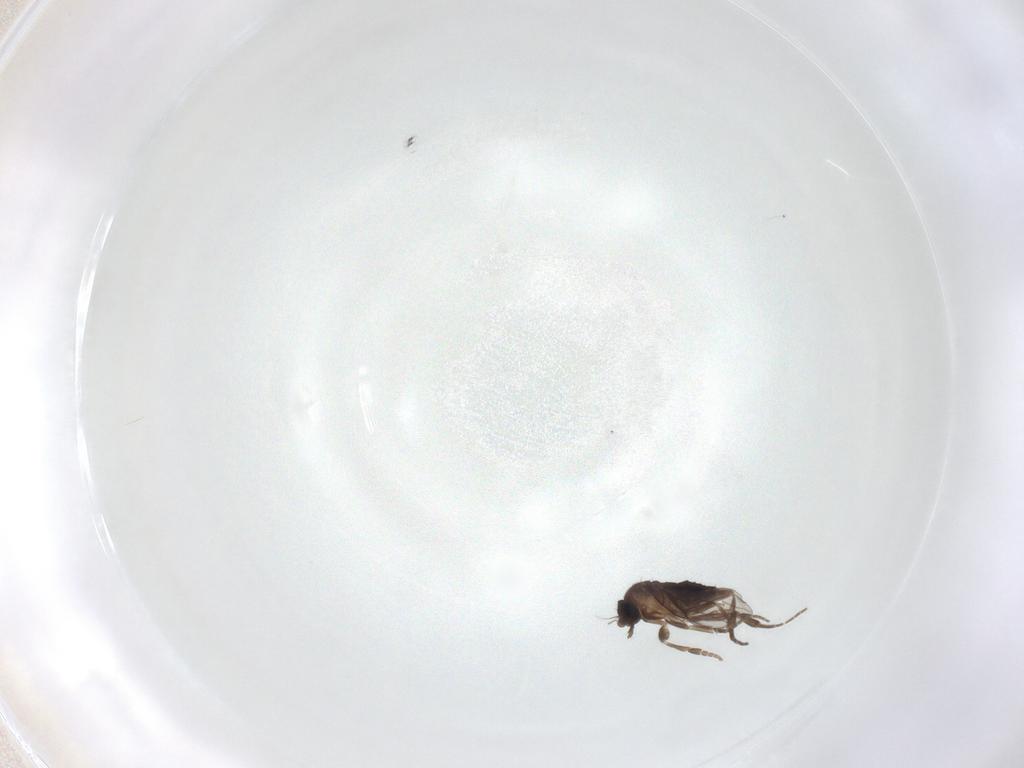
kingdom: Animalia
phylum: Arthropoda
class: Insecta
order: Diptera
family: Phoridae
